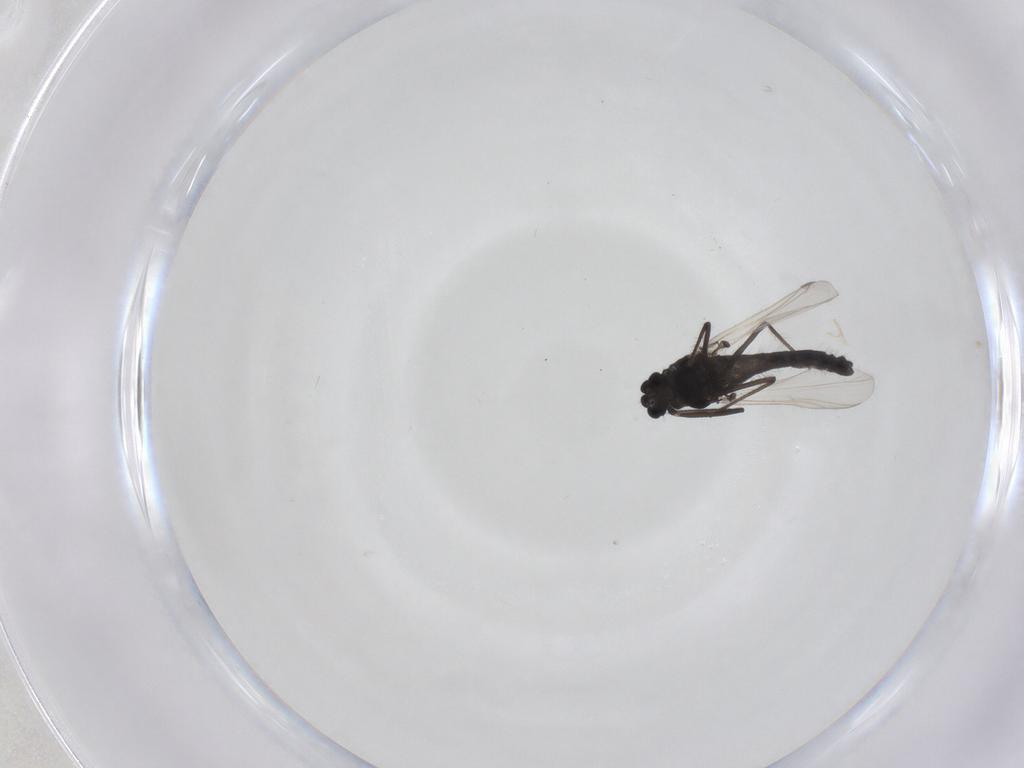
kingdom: Animalia
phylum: Arthropoda
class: Insecta
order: Diptera
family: Chironomidae
